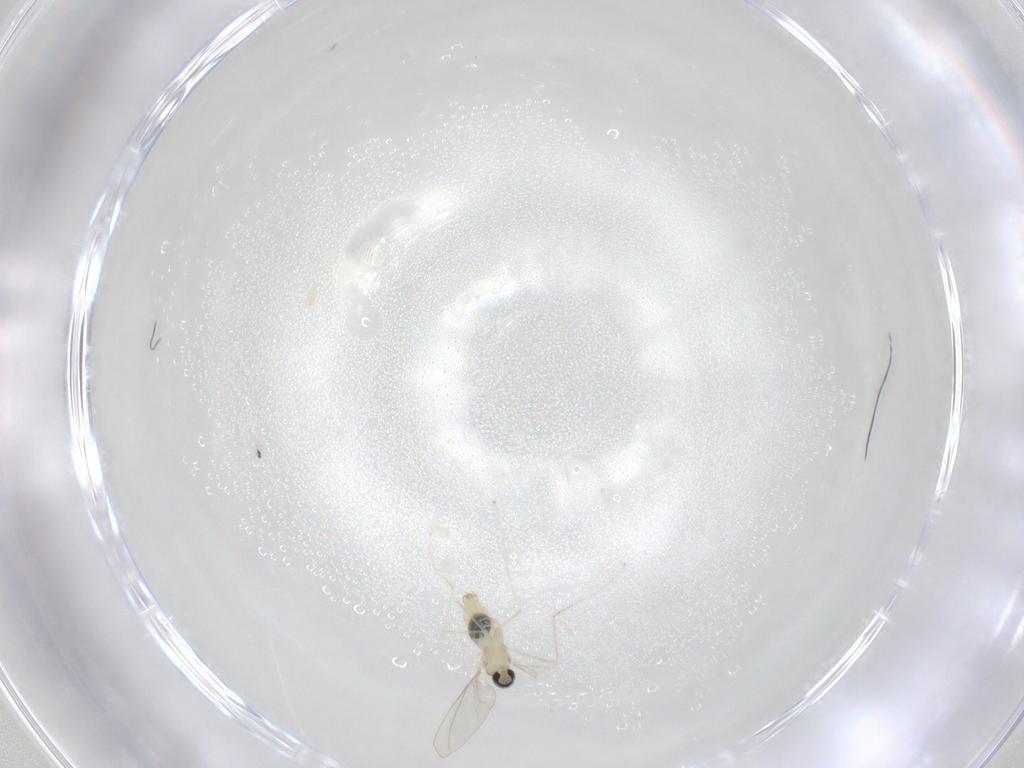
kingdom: Animalia
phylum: Arthropoda
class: Insecta
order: Diptera
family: Cecidomyiidae
